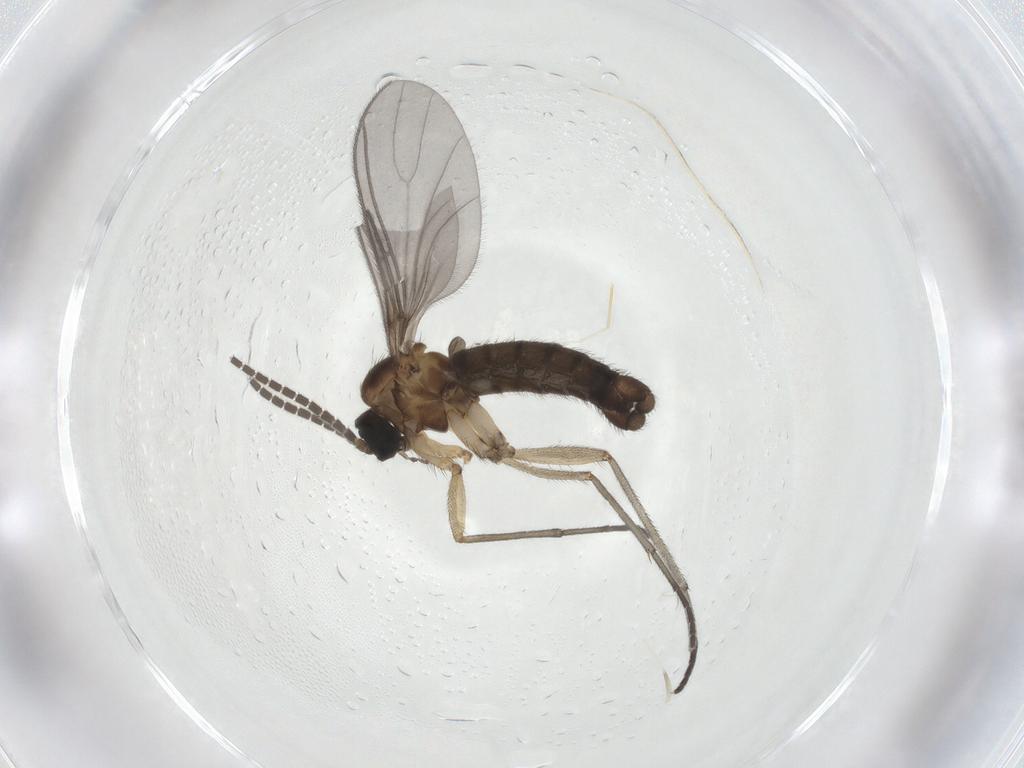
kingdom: Animalia
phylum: Arthropoda
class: Insecta
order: Diptera
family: Sciaridae
